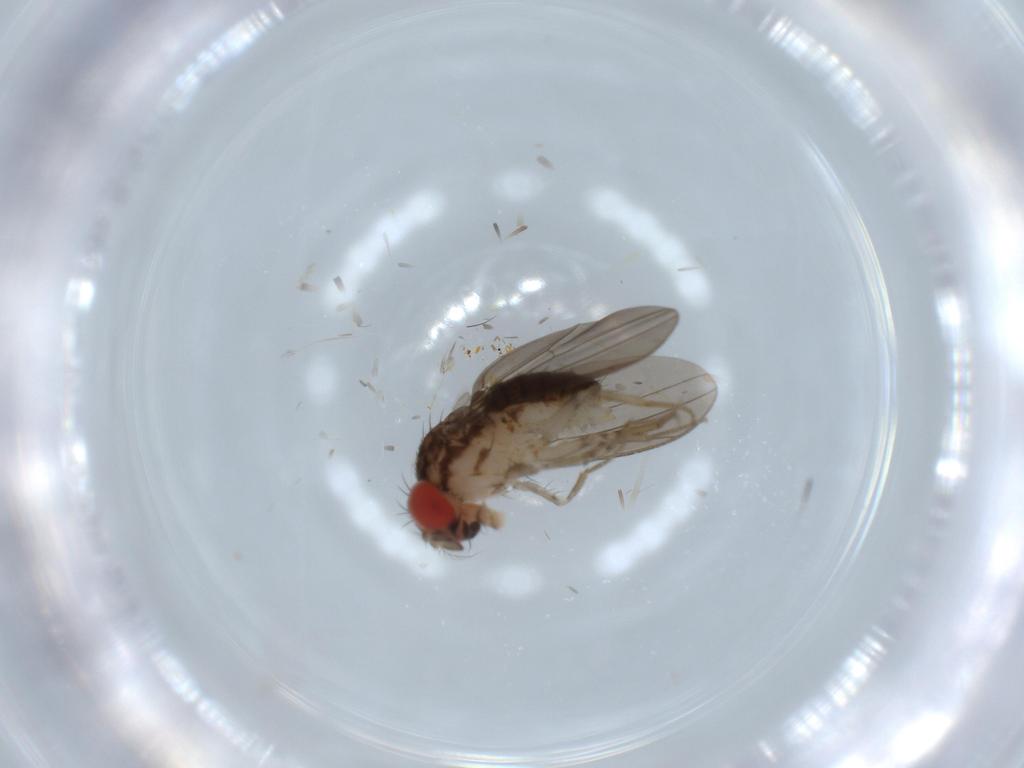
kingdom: Animalia
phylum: Arthropoda
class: Insecta
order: Diptera
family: Drosophilidae
